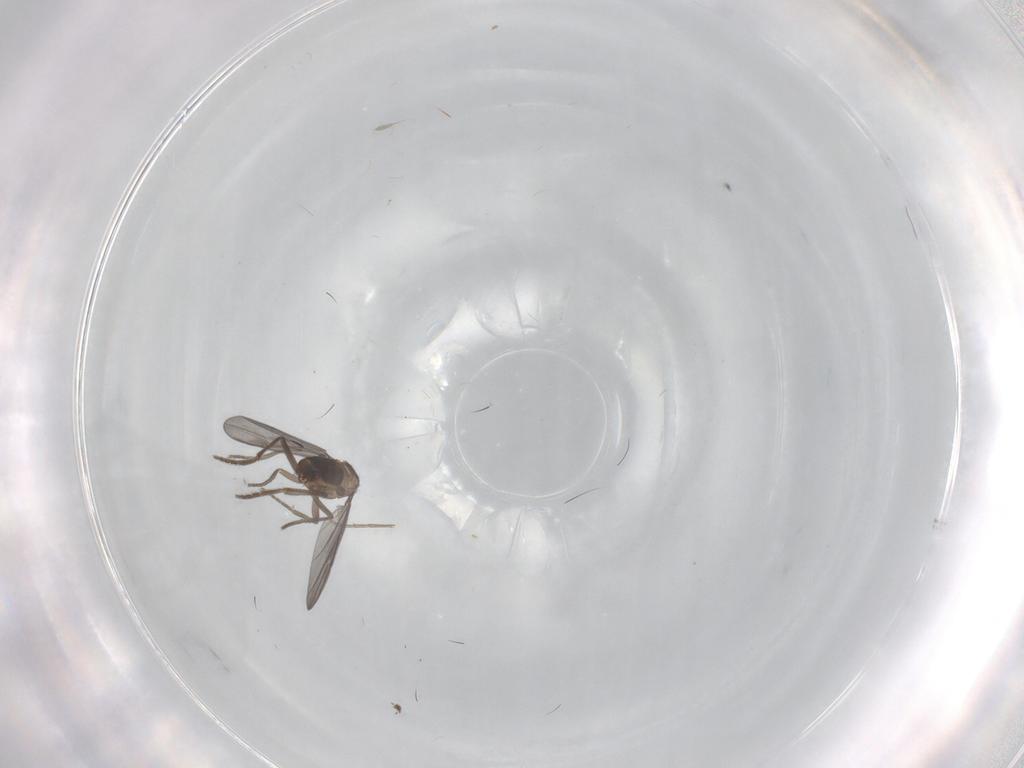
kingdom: Animalia
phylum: Arthropoda
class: Insecta
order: Diptera
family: Phoridae
